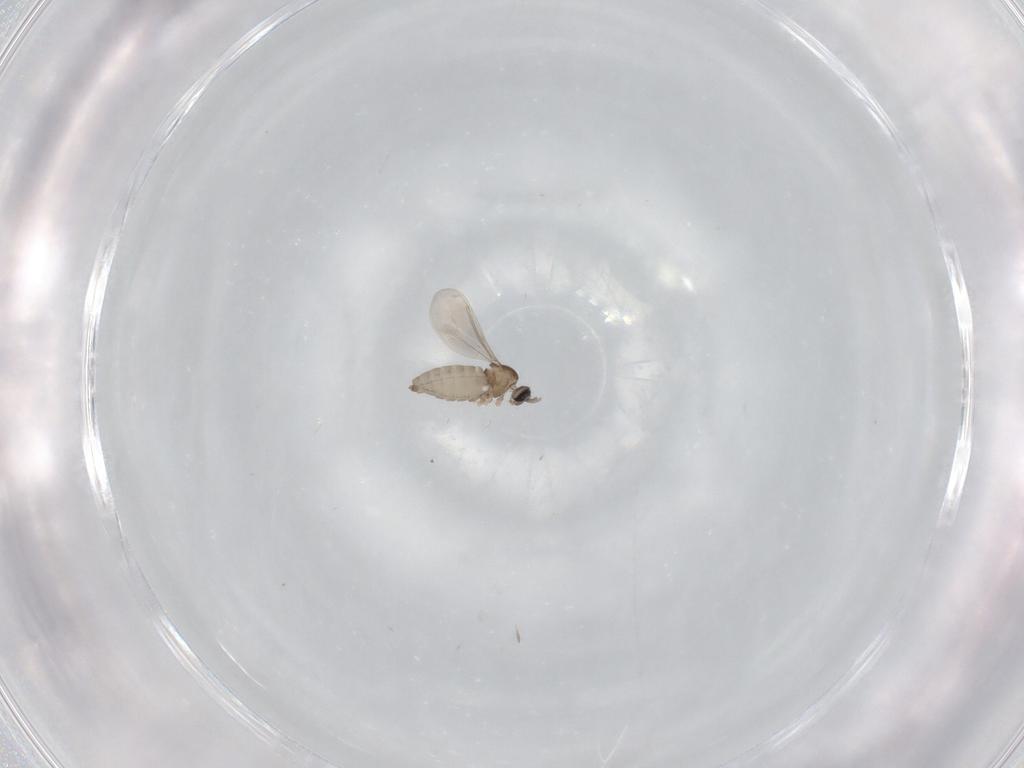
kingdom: Animalia
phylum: Arthropoda
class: Insecta
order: Diptera
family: Cecidomyiidae
